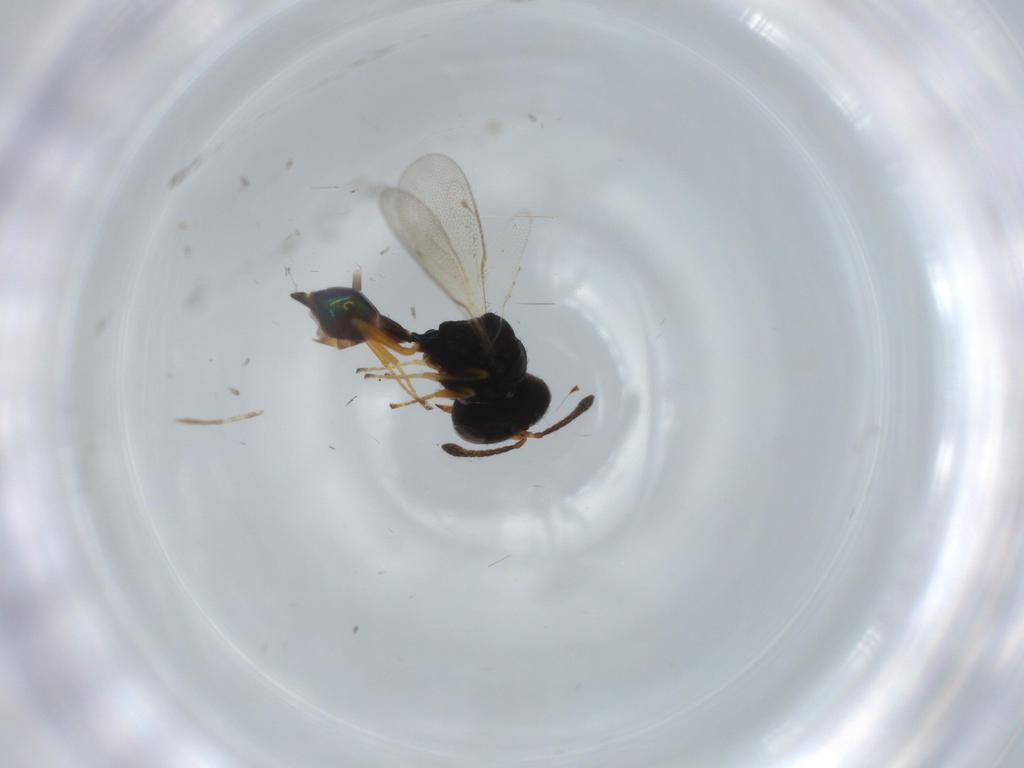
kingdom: Animalia
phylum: Arthropoda
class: Insecta
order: Hymenoptera
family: Pteromalidae
